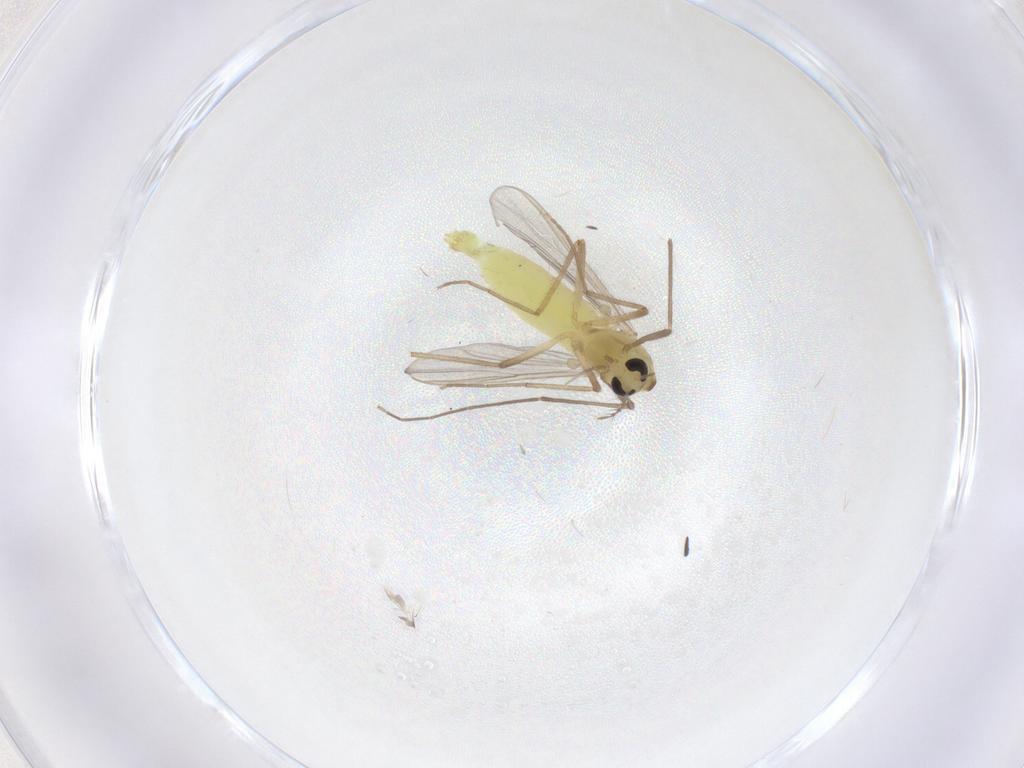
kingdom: Animalia
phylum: Arthropoda
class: Insecta
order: Diptera
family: Chironomidae
